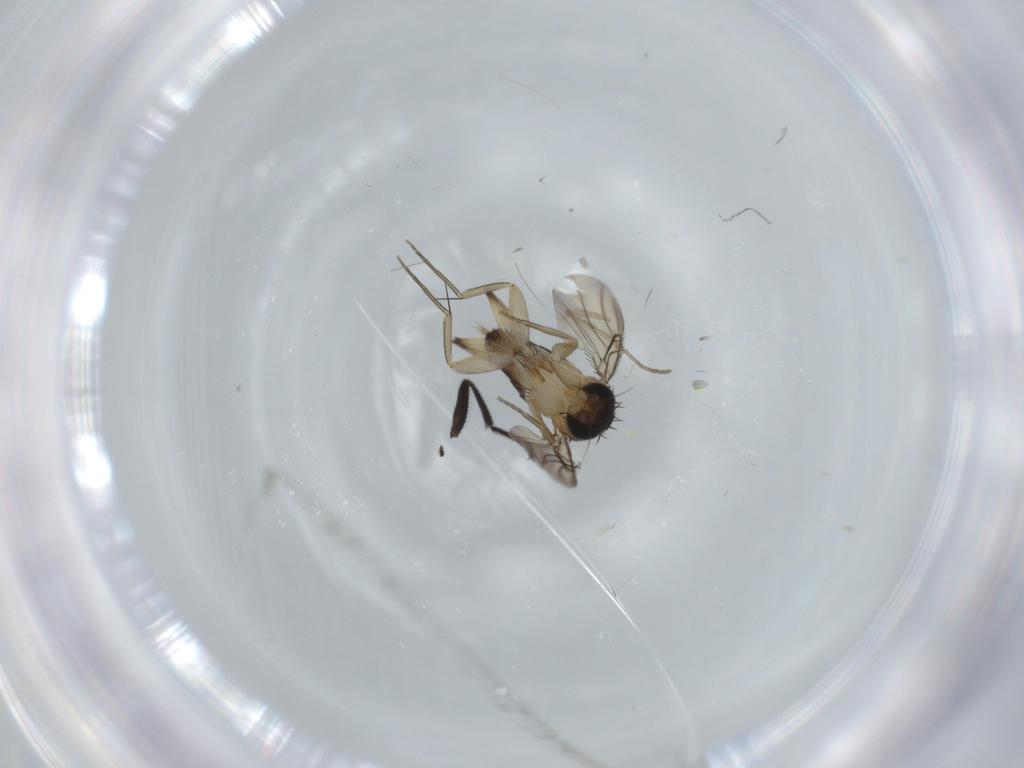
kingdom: Animalia
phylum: Arthropoda
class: Insecta
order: Diptera
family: Phoridae
